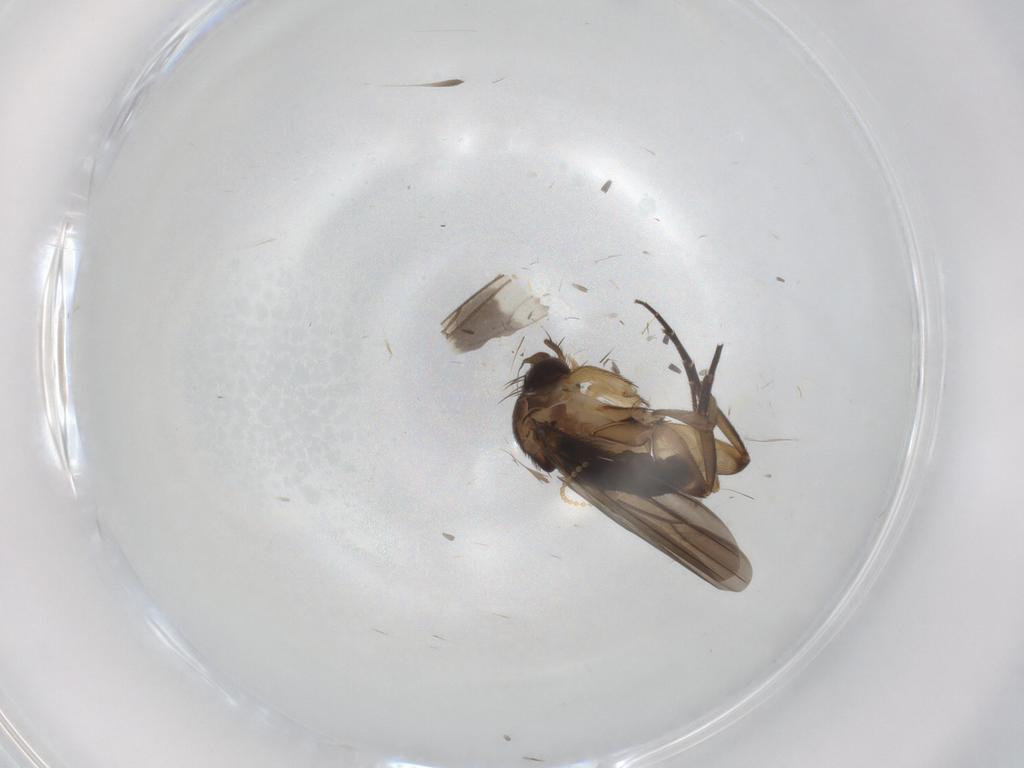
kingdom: Animalia
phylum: Arthropoda
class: Insecta
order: Diptera
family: Phoridae
